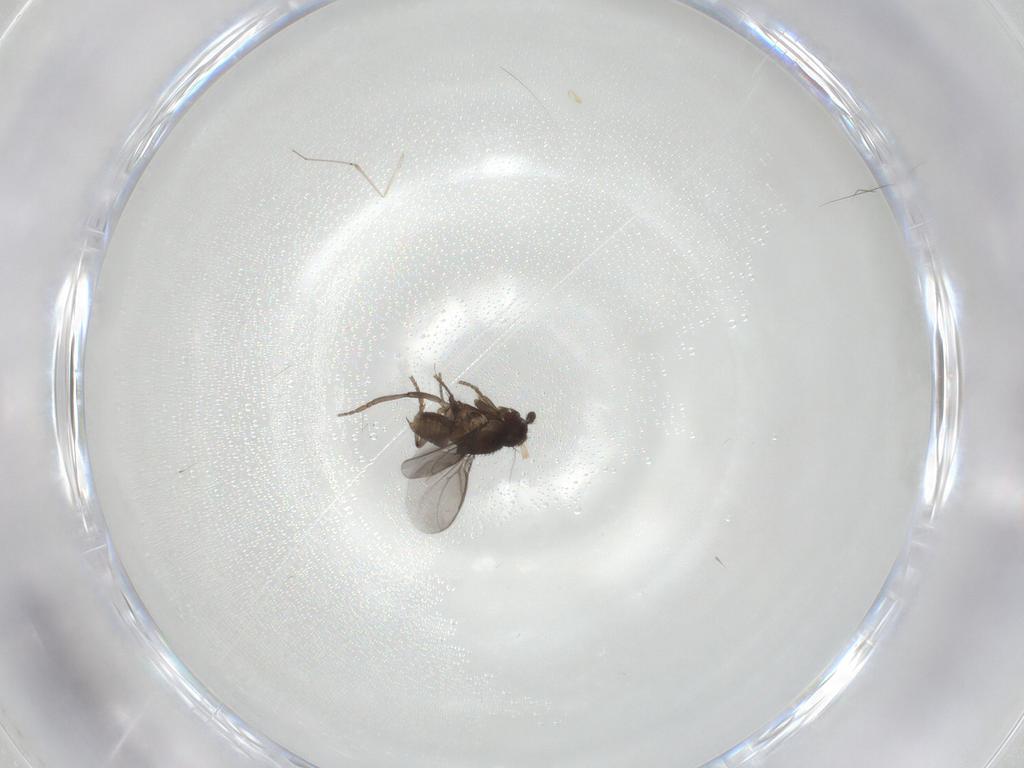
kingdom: Animalia
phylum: Arthropoda
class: Insecta
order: Diptera
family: Sphaeroceridae
